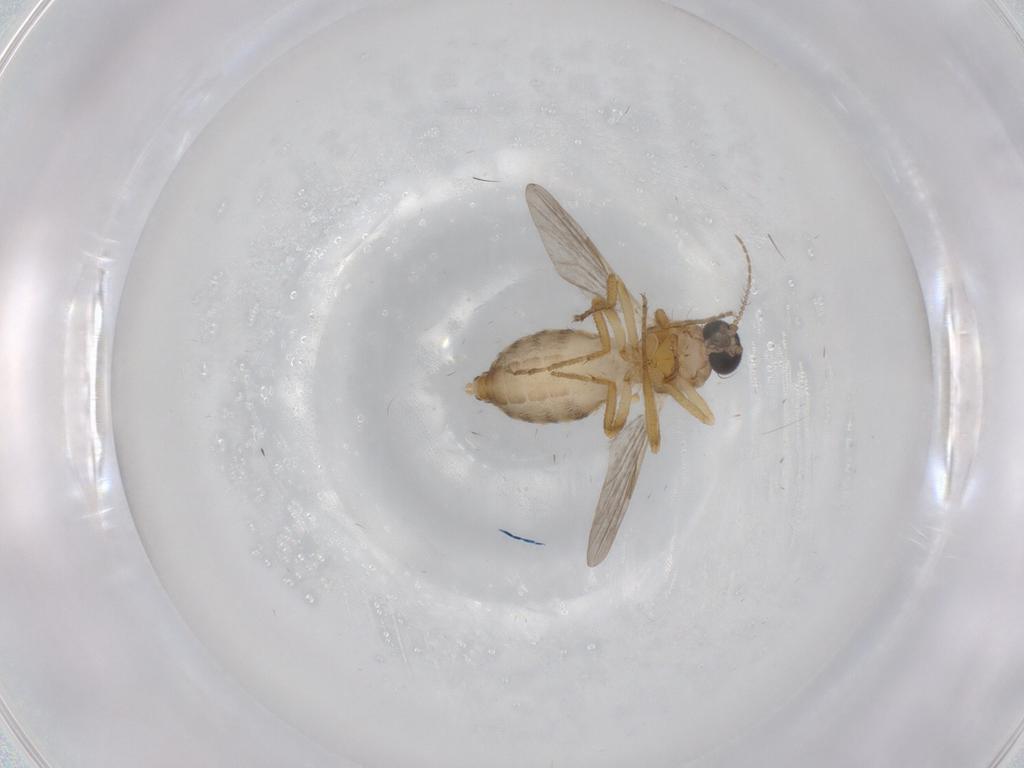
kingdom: Animalia
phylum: Arthropoda
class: Insecta
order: Diptera
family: Ceratopogonidae
